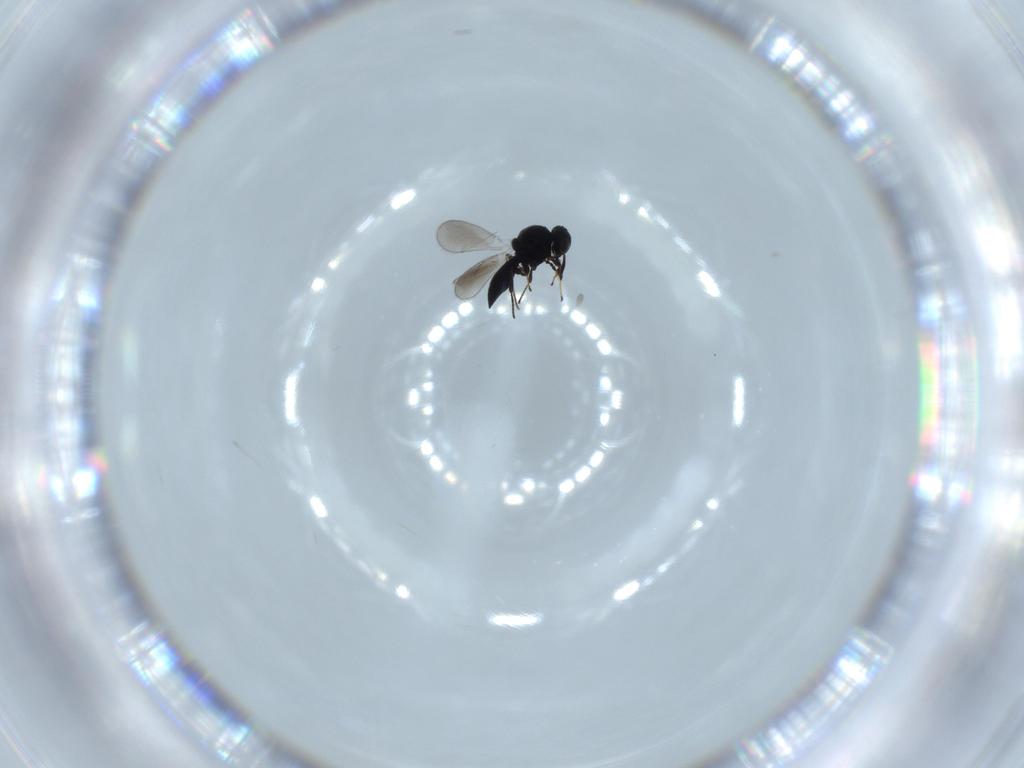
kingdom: Animalia
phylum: Arthropoda
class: Insecta
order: Hymenoptera
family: Platygastridae
